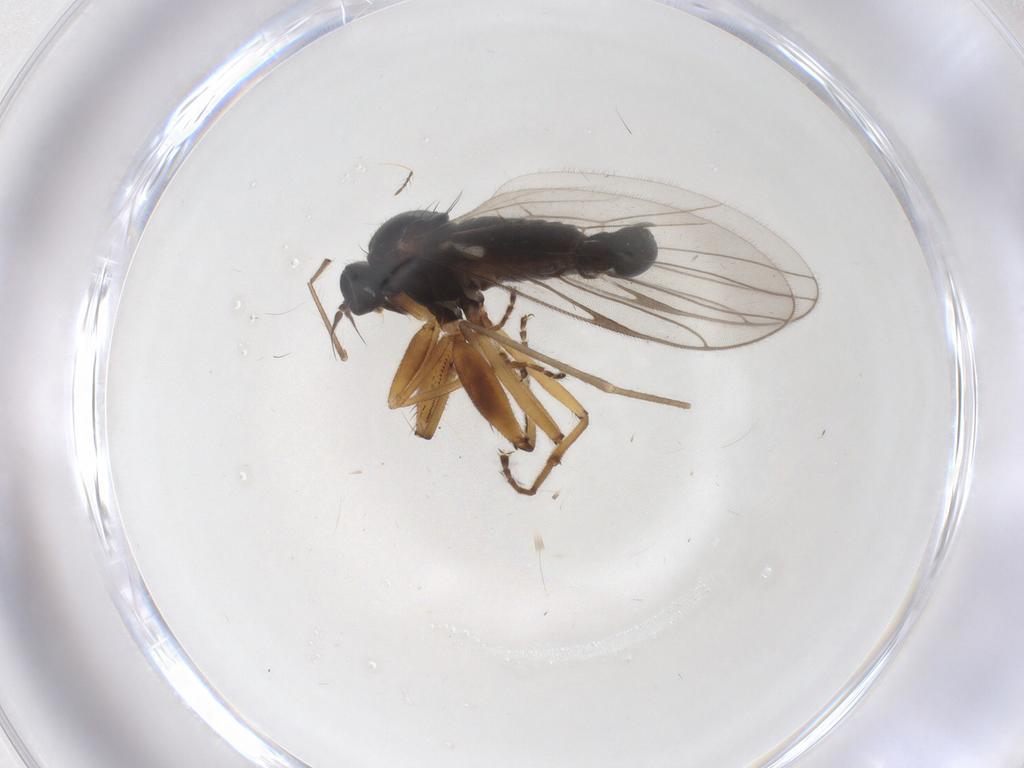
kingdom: Animalia
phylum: Arthropoda
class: Insecta
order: Diptera
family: Hybotidae
